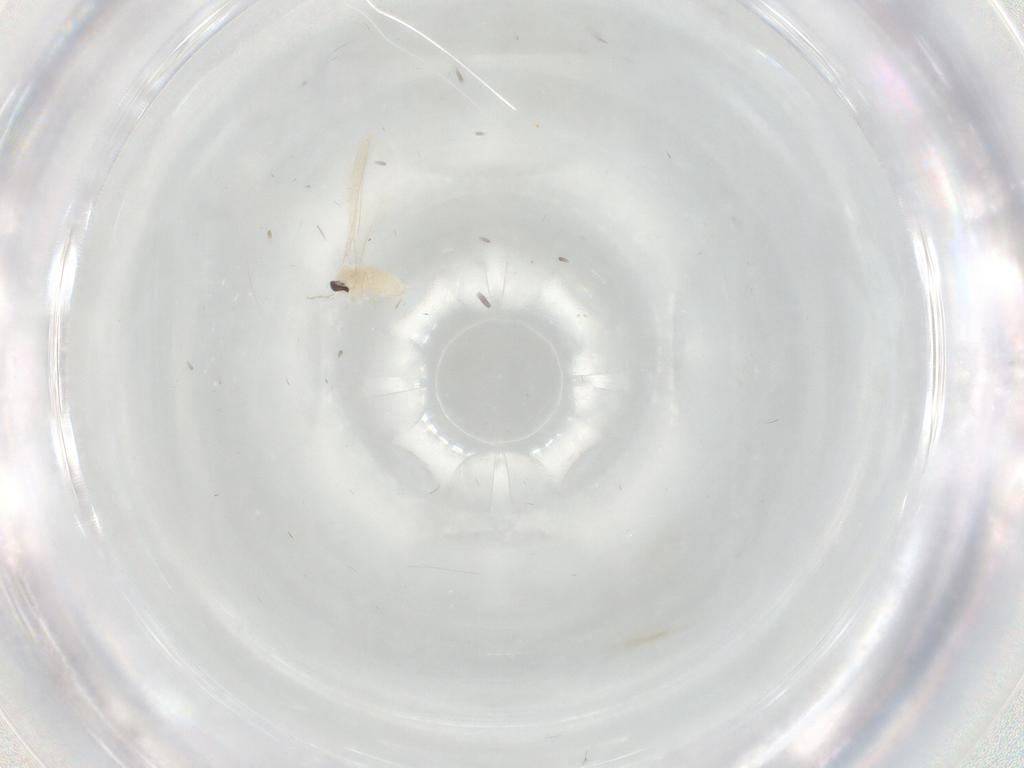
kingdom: Animalia
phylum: Arthropoda
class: Insecta
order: Diptera
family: Cecidomyiidae
